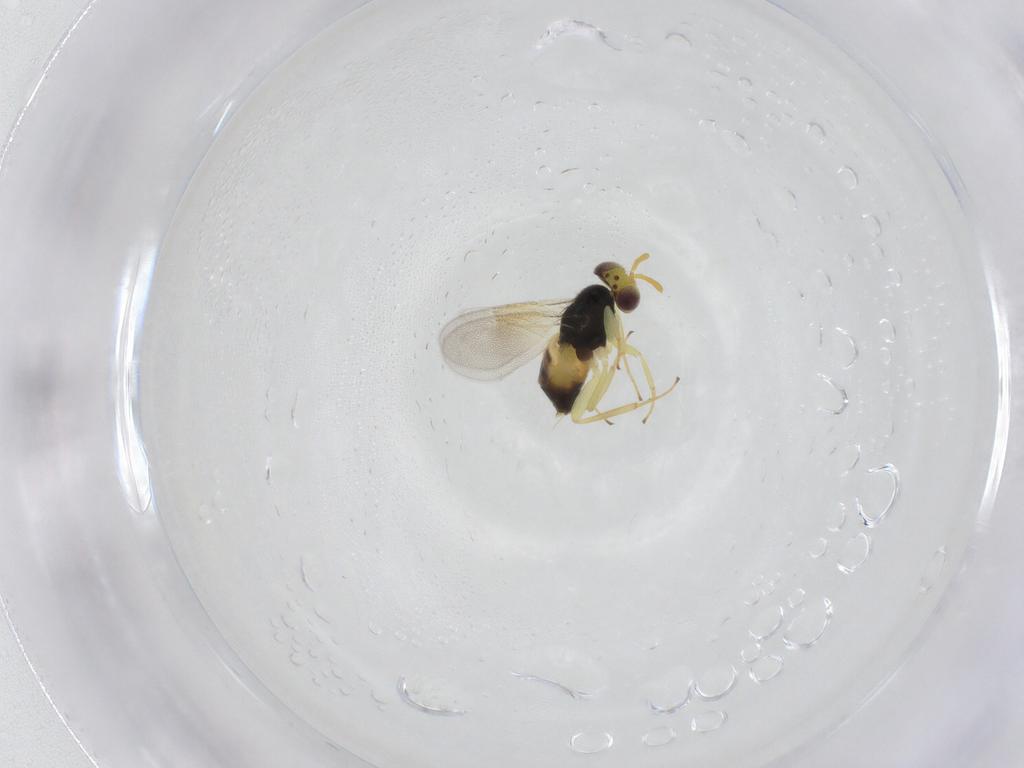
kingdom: Animalia
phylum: Arthropoda
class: Insecta
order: Hymenoptera
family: Aphelinidae
